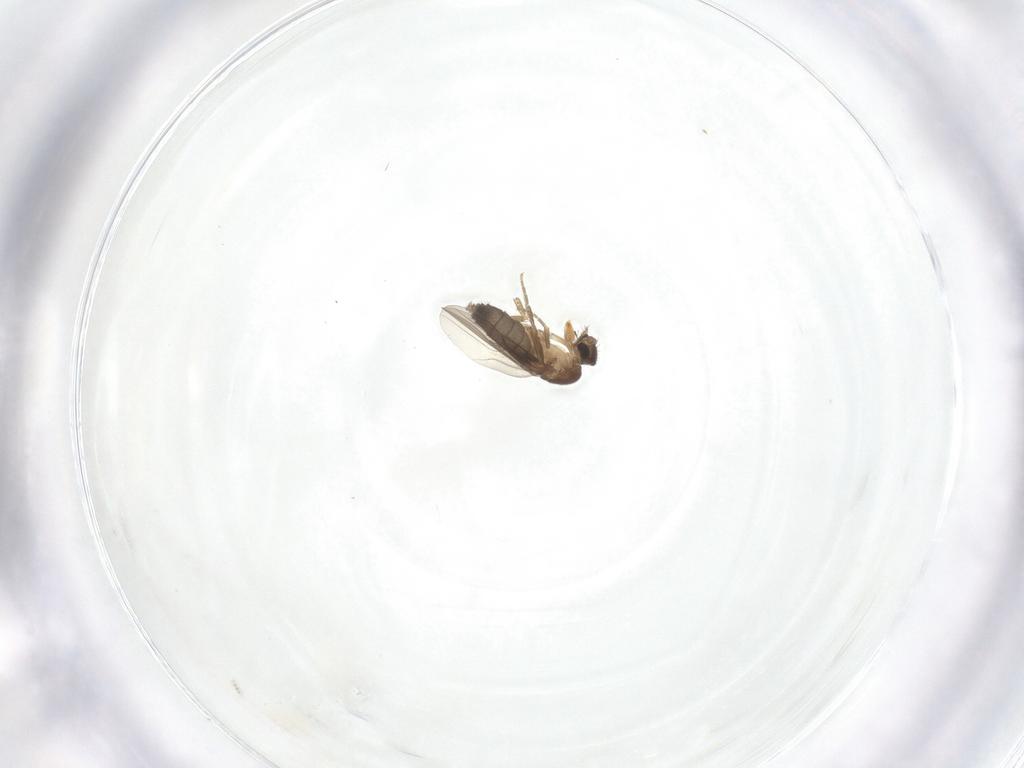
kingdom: Animalia
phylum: Arthropoda
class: Insecta
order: Diptera
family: Phoridae
